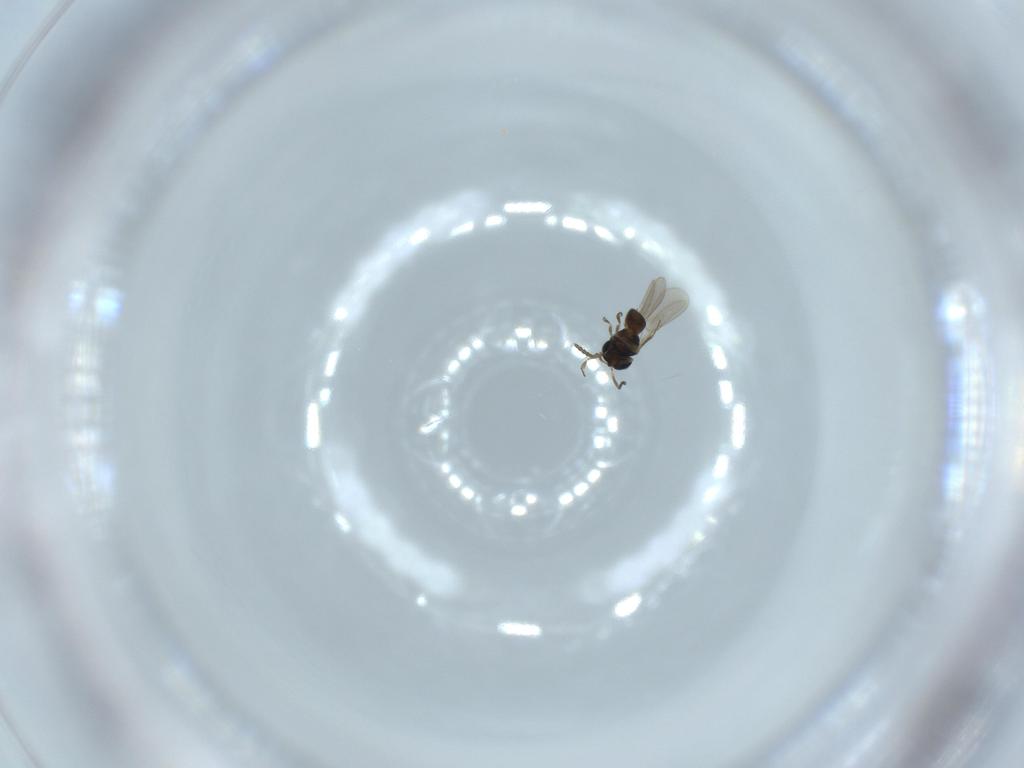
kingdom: Animalia
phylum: Arthropoda
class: Insecta
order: Hymenoptera
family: Scelionidae
